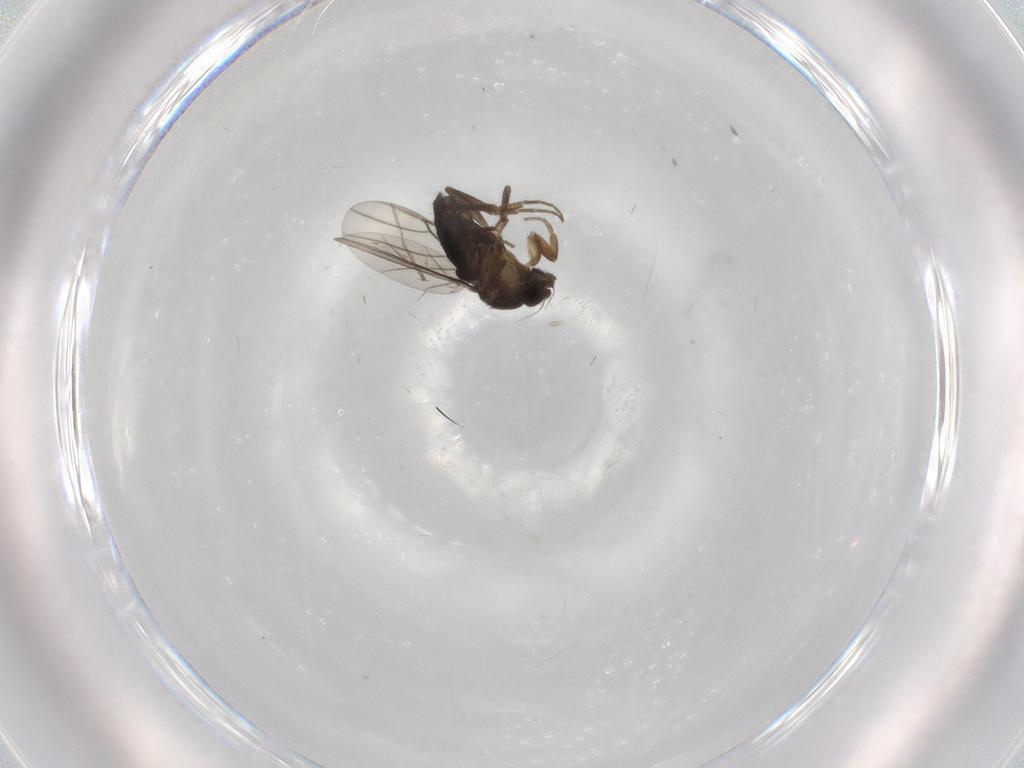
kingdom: Animalia
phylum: Arthropoda
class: Insecta
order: Diptera
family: Cecidomyiidae
